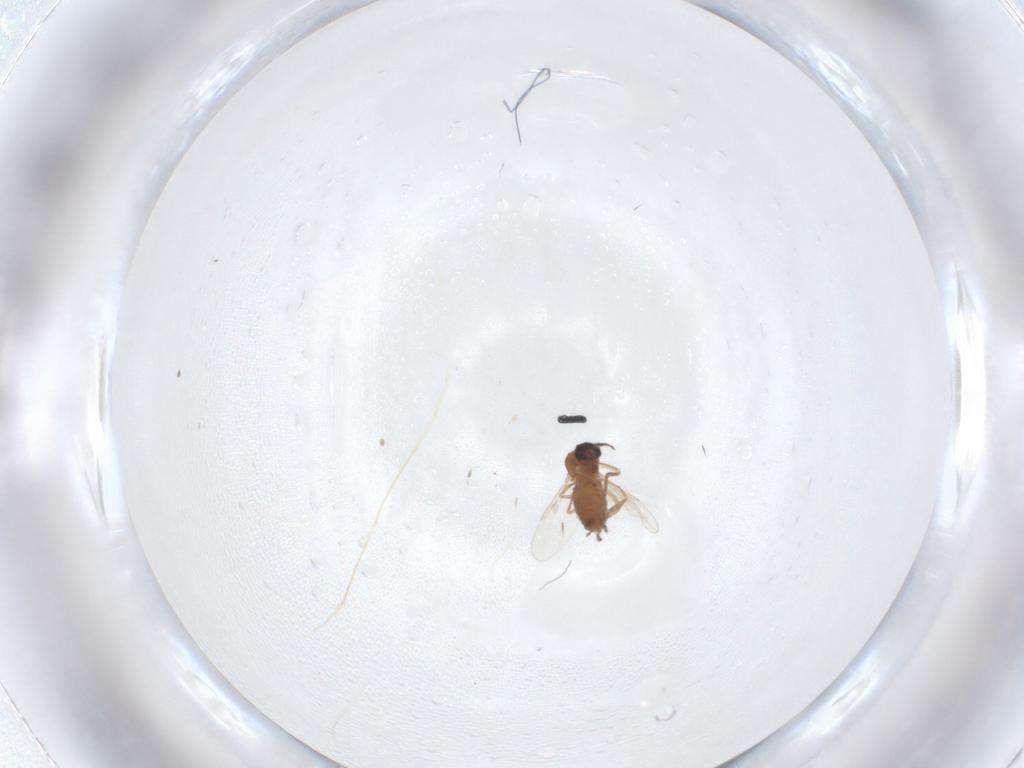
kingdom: Animalia
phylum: Arthropoda
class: Insecta
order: Diptera
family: Ceratopogonidae
